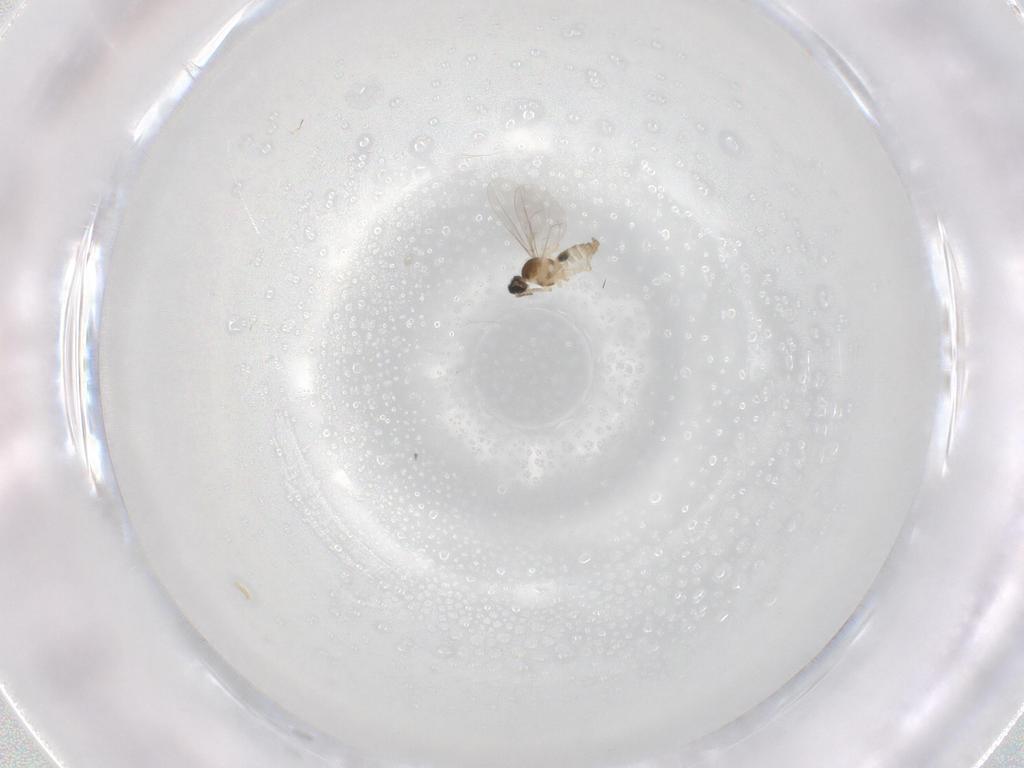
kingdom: Animalia
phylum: Arthropoda
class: Insecta
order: Diptera
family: Cecidomyiidae
